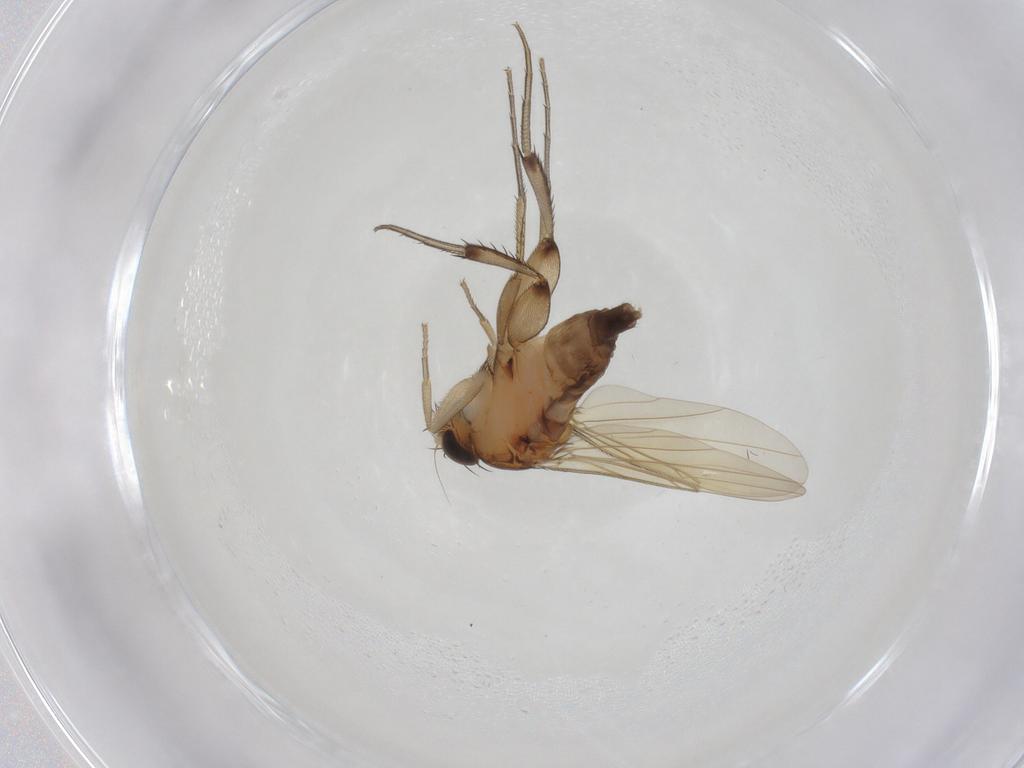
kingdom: Animalia
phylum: Arthropoda
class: Insecta
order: Diptera
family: Phoridae
